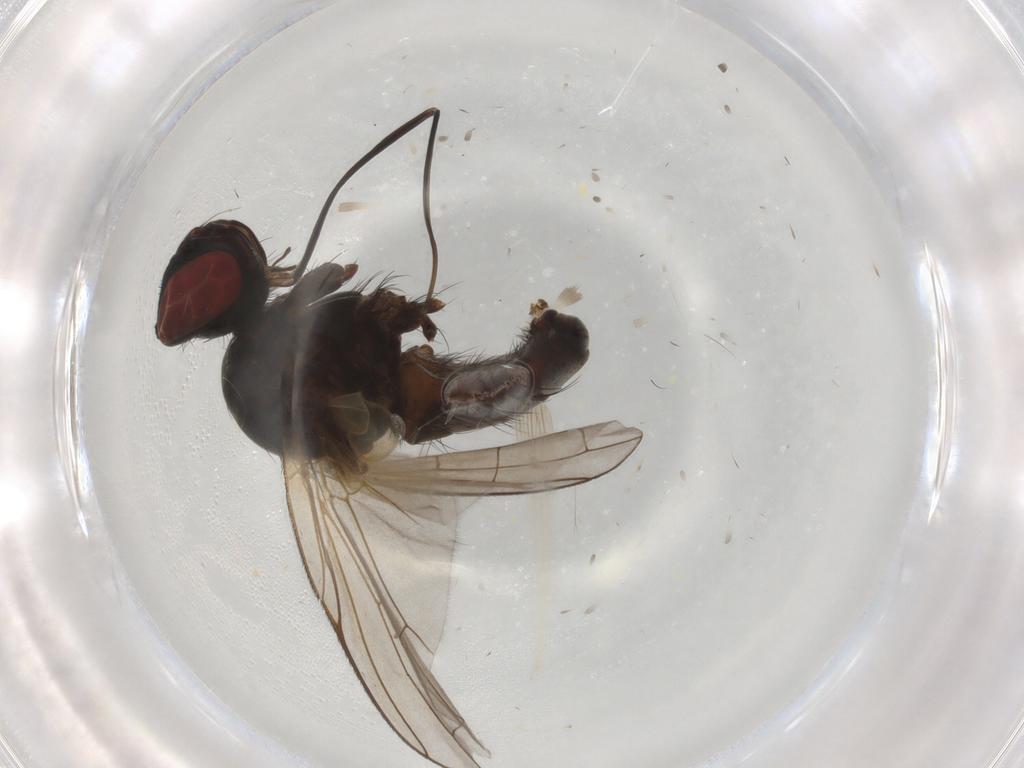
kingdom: Animalia
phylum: Arthropoda
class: Insecta
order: Diptera
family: Tachinidae
